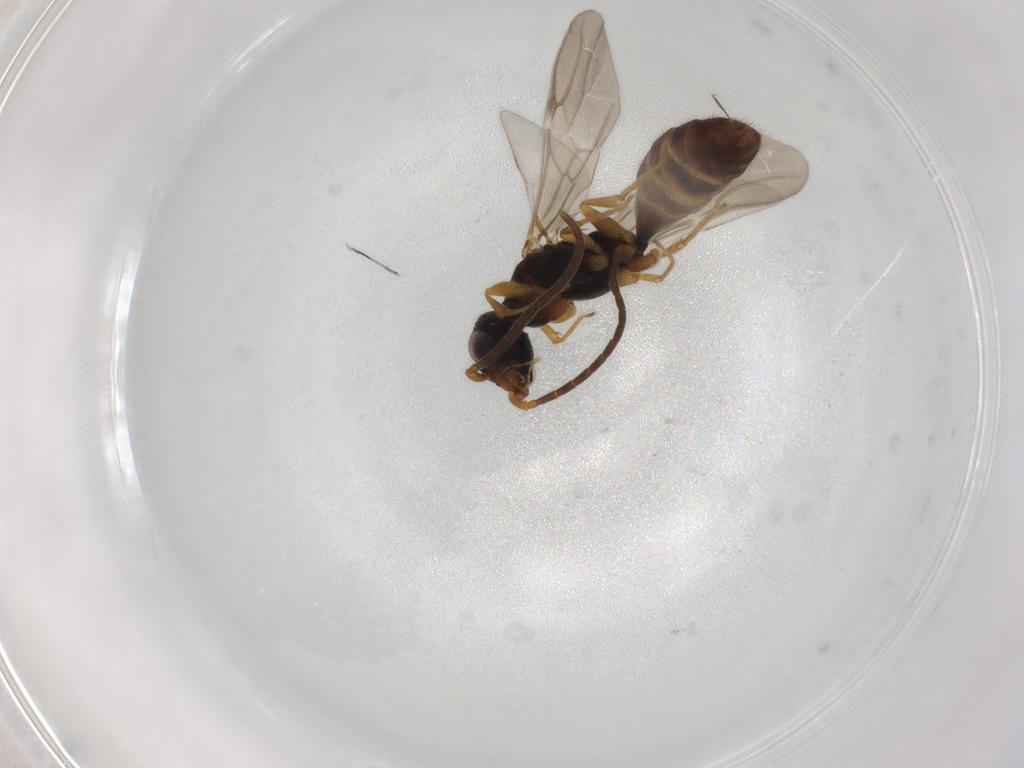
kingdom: Animalia
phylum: Arthropoda
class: Insecta
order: Hymenoptera
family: Bethylidae
